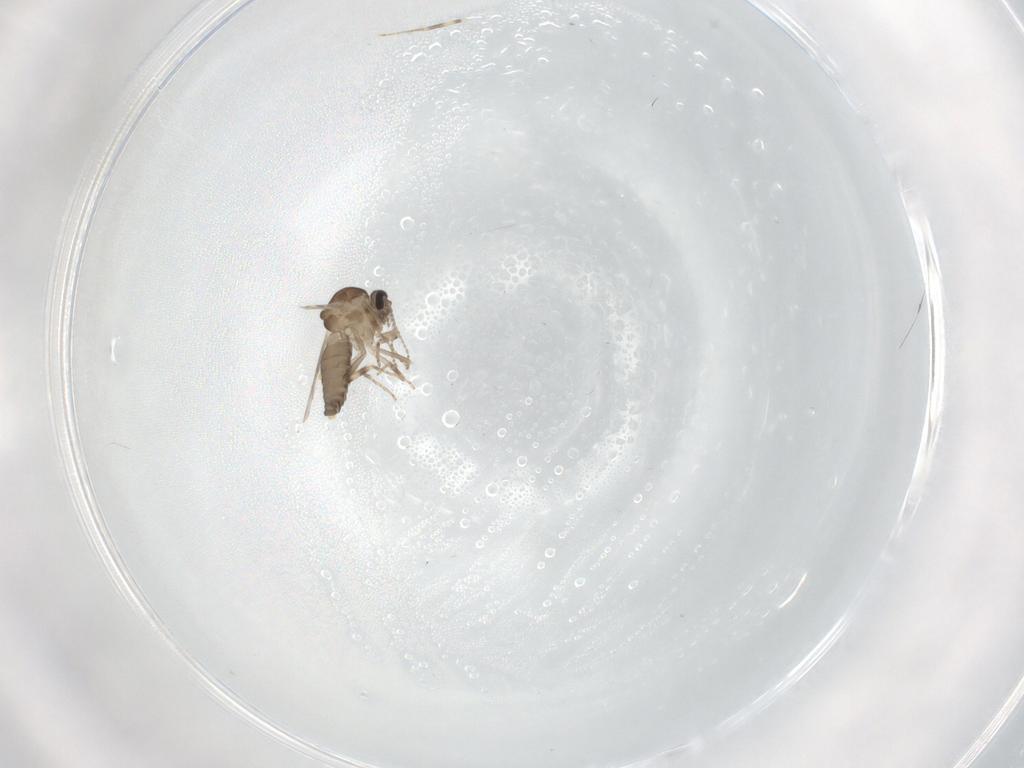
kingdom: Animalia
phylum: Arthropoda
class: Insecta
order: Diptera
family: Ceratopogonidae
